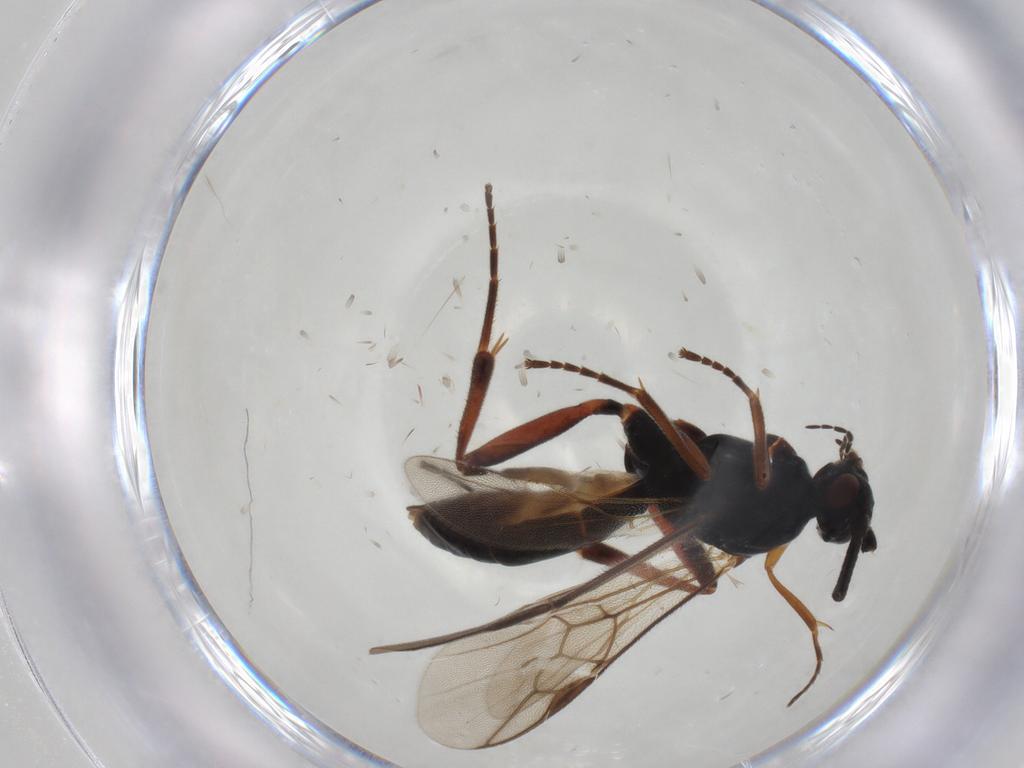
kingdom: Animalia
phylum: Arthropoda
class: Insecta
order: Hymenoptera
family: Braconidae
